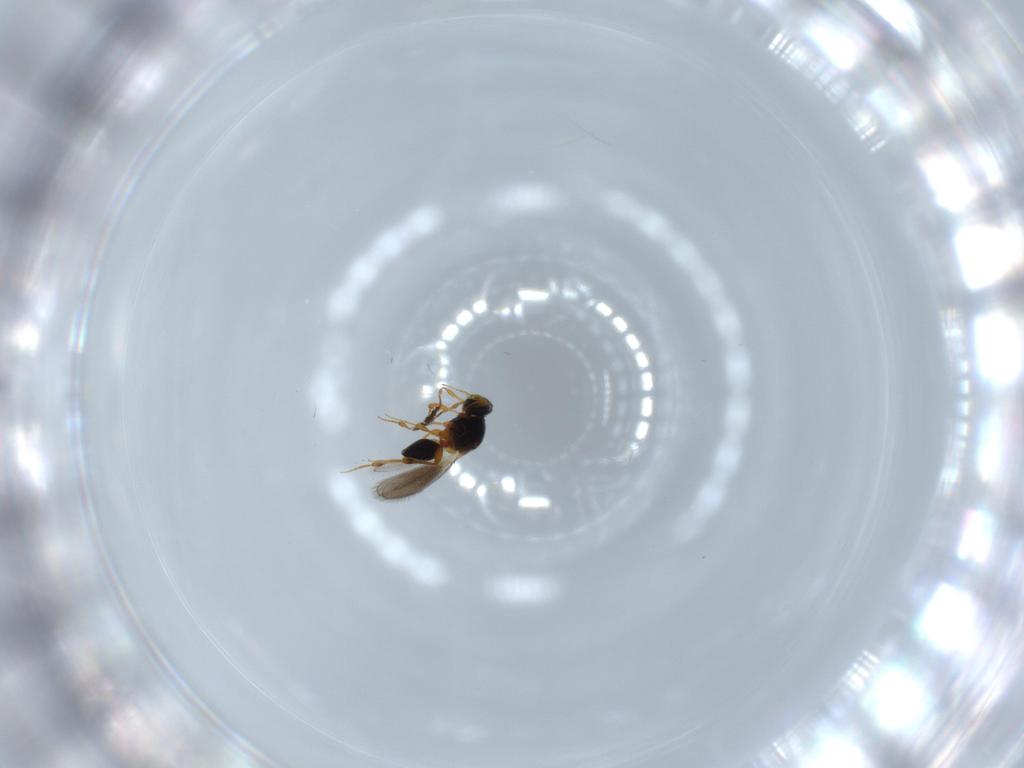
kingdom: Animalia
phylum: Arthropoda
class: Insecta
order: Hymenoptera
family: Platygastridae
